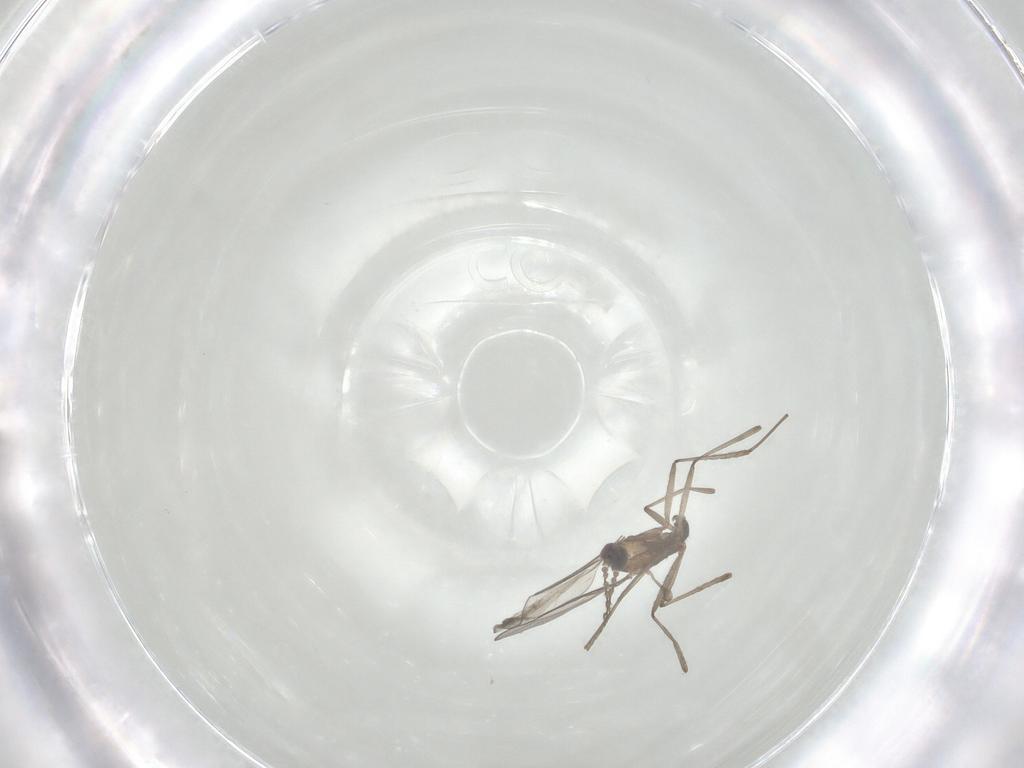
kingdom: Animalia
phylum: Arthropoda
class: Insecta
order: Diptera
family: Cecidomyiidae
